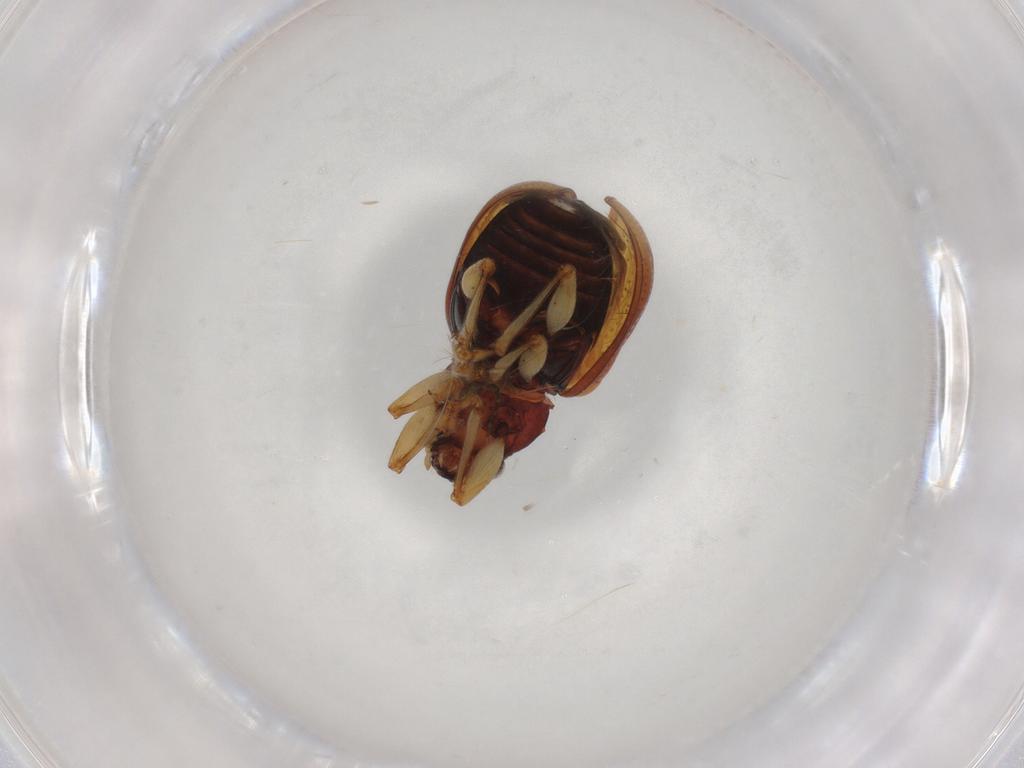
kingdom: Animalia
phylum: Arthropoda
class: Insecta
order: Coleoptera
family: Chrysomelidae
